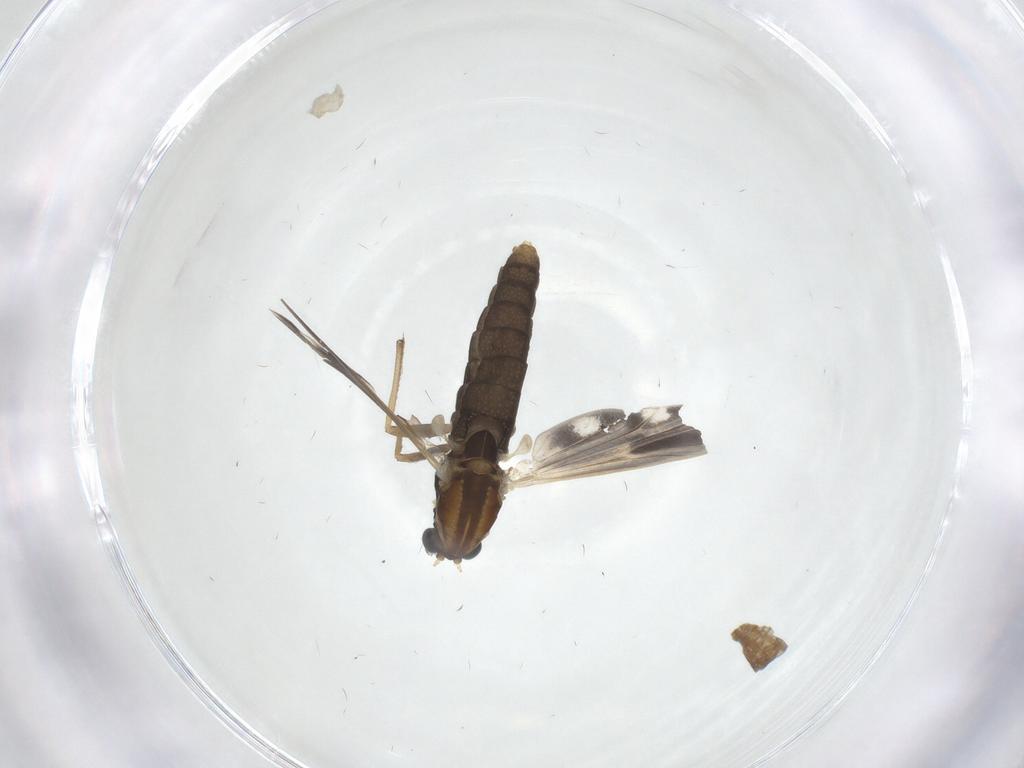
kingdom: Animalia
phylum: Arthropoda
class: Insecta
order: Diptera
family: Chironomidae
